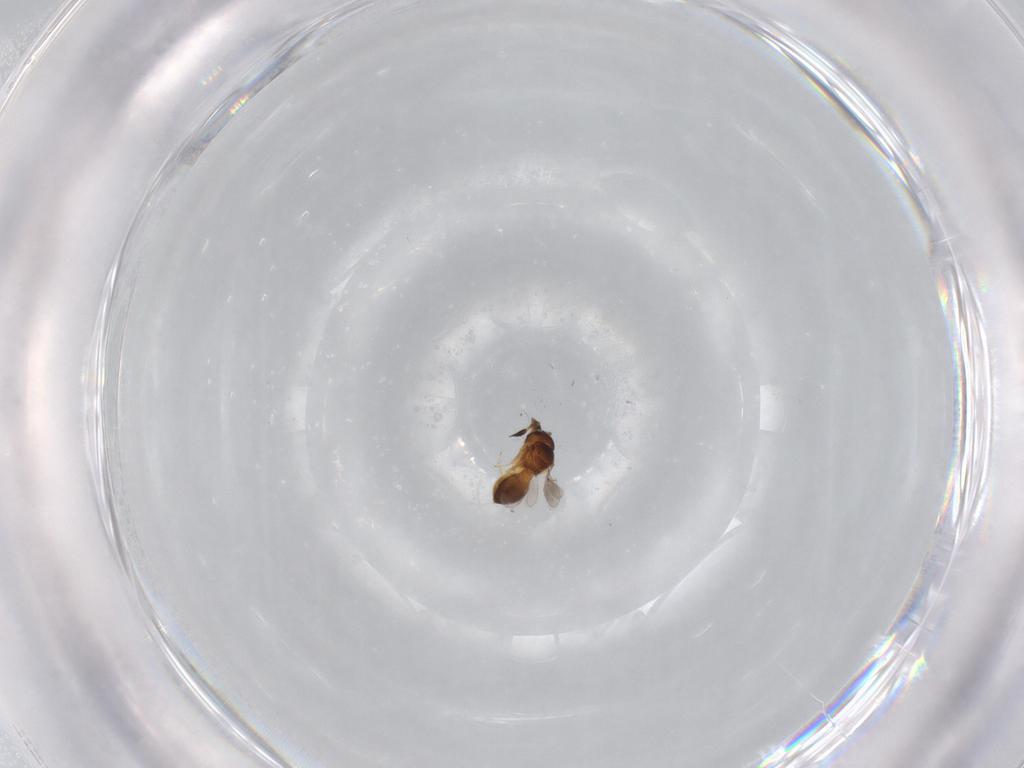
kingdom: Animalia
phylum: Arthropoda
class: Insecta
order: Hymenoptera
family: Scelionidae
